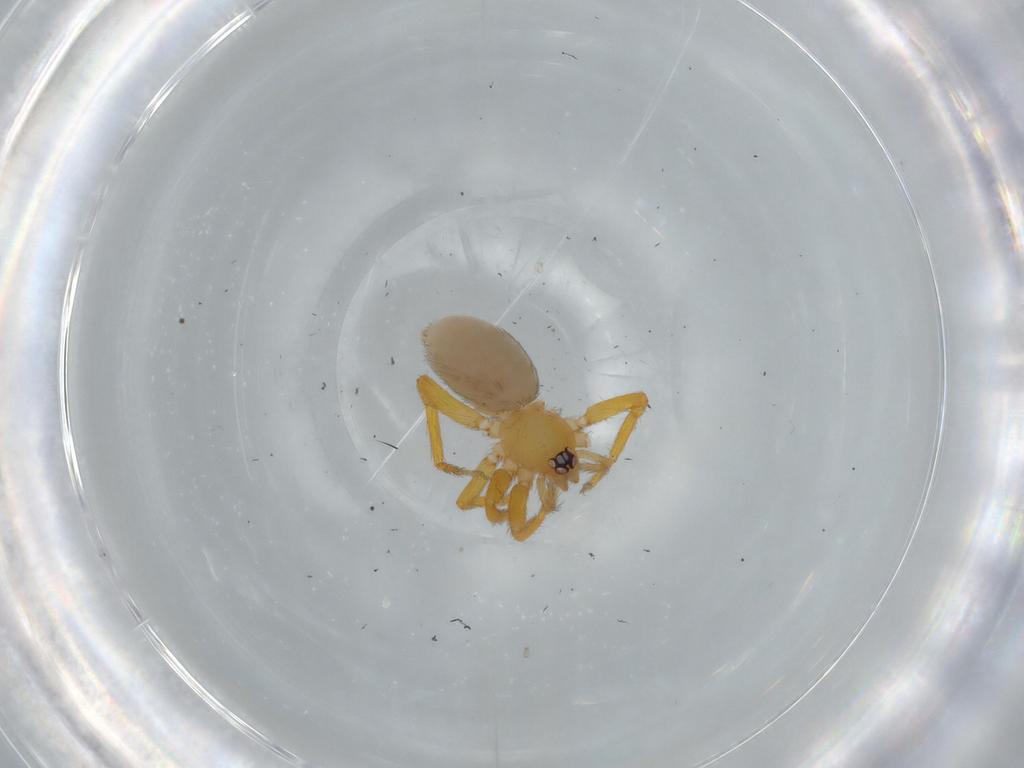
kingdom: Animalia
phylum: Arthropoda
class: Arachnida
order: Araneae
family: Oonopidae
